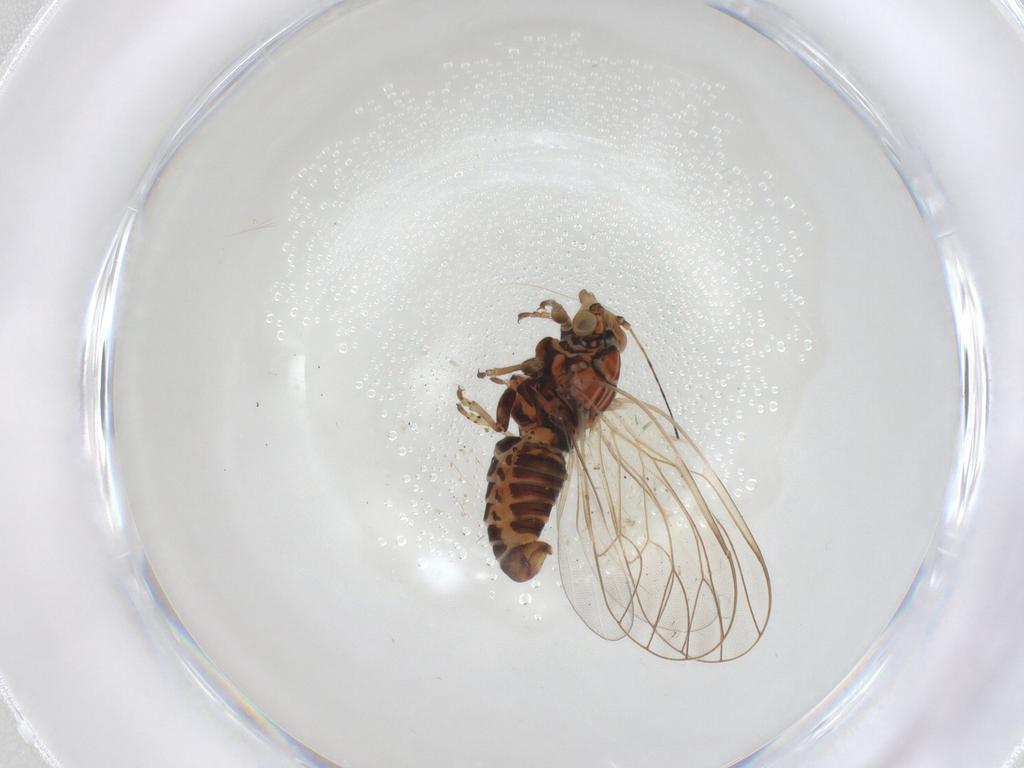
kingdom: Animalia
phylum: Arthropoda
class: Insecta
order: Hemiptera
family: Psyllidae
